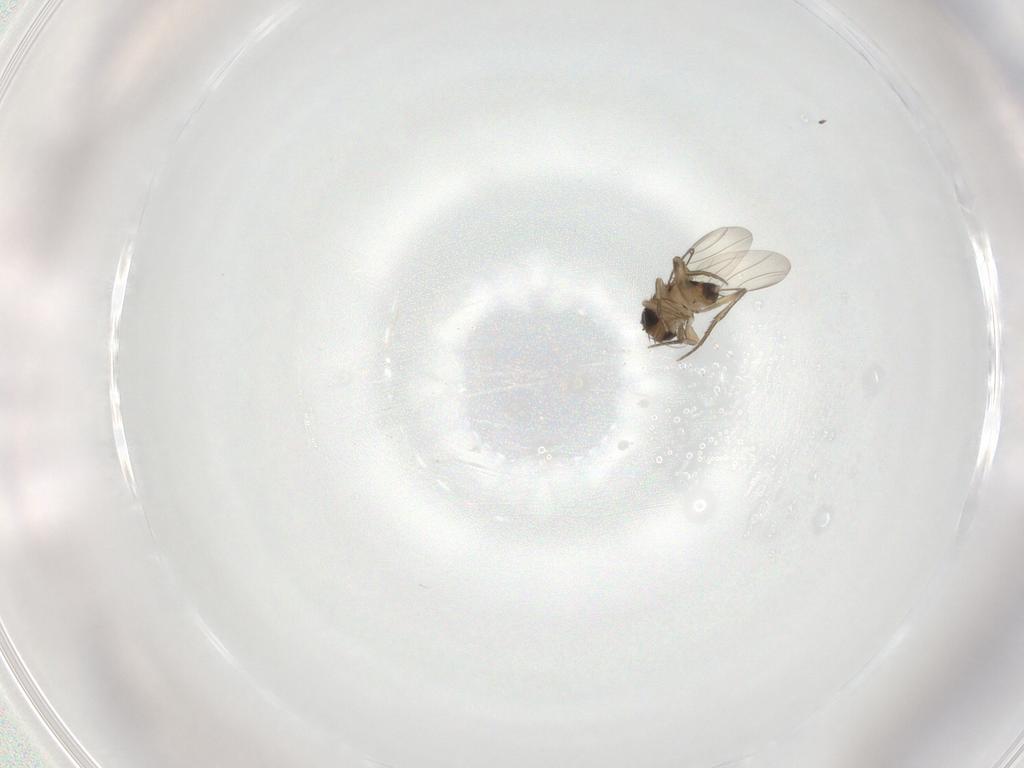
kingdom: Animalia
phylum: Arthropoda
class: Insecta
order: Diptera
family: Phoridae
